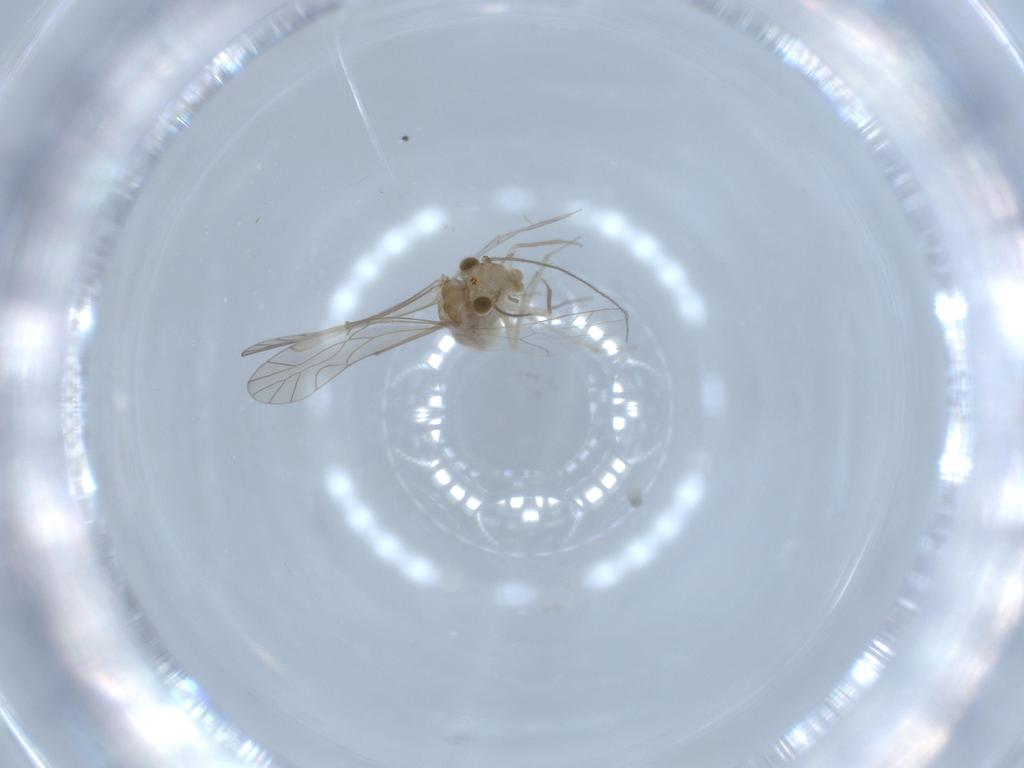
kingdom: Animalia
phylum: Arthropoda
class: Insecta
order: Psocodea
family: Lachesillidae
